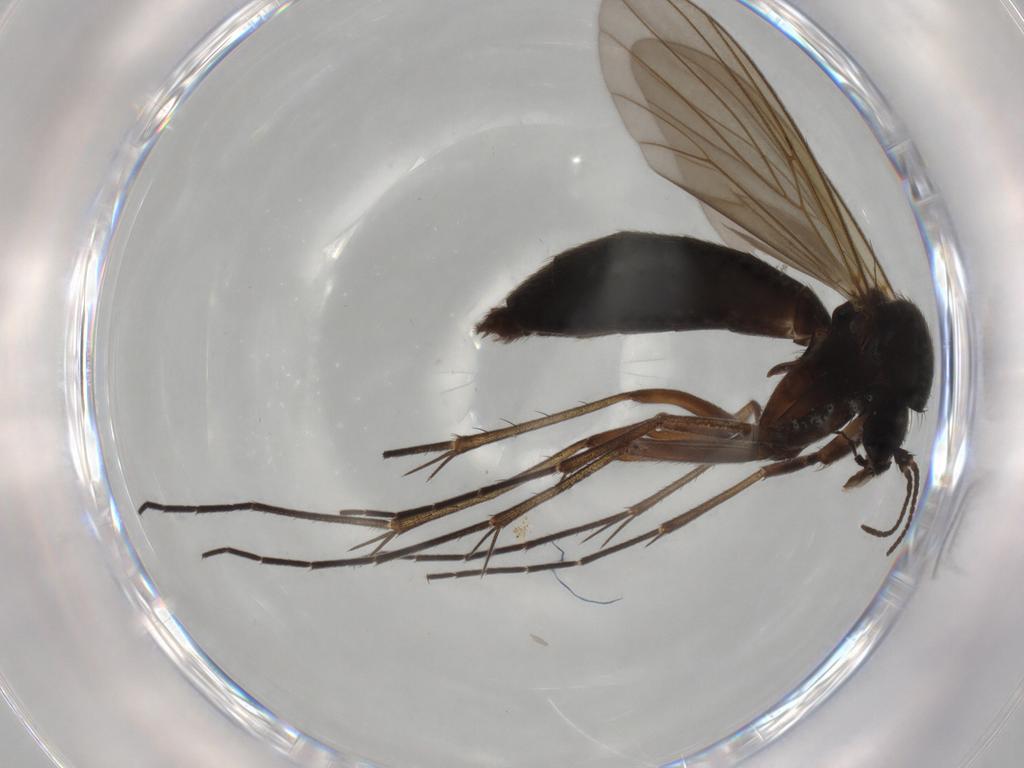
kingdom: Animalia
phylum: Arthropoda
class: Insecta
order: Diptera
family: Mycetophilidae
